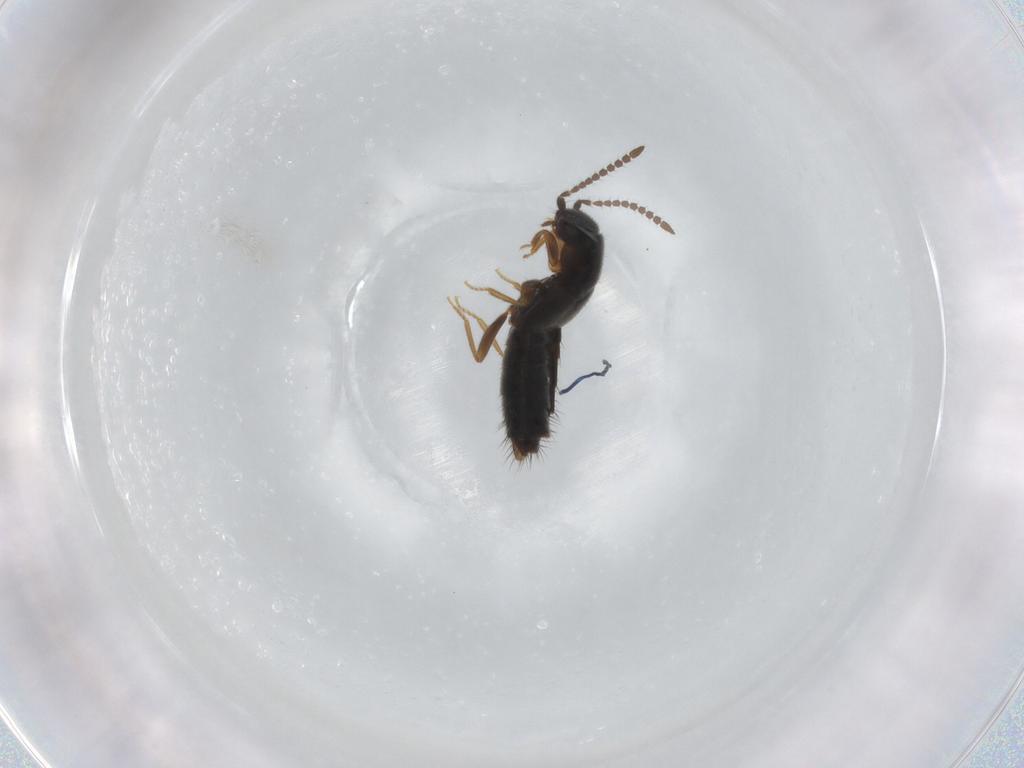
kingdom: Animalia
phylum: Arthropoda
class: Insecta
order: Coleoptera
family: Staphylinidae
